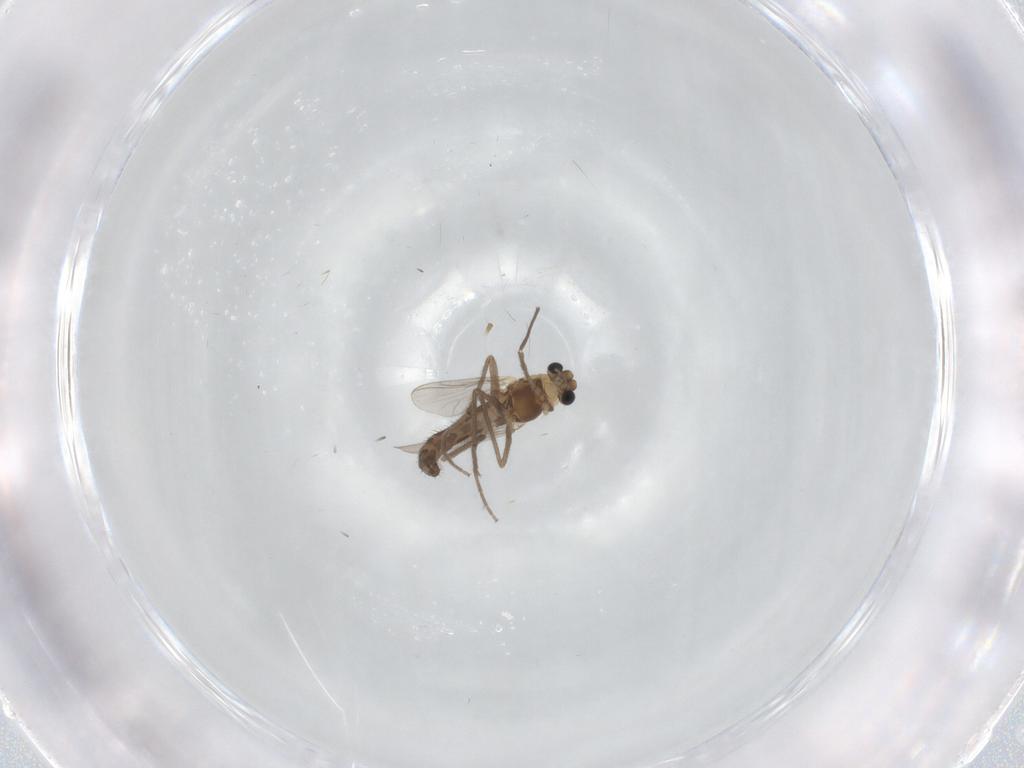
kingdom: Animalia
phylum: Arthropoda
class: Insecta
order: Diptera
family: Chironomidae
